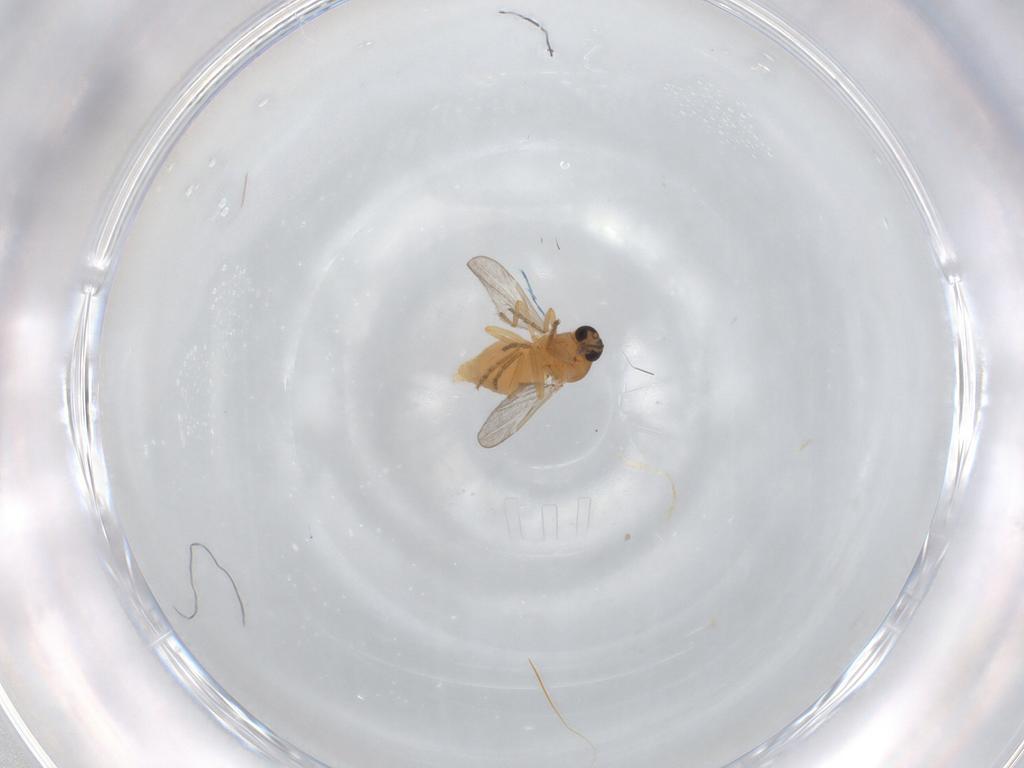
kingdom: Animalia
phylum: Arthropoda
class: Insecta
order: Diptera
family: Ceratopogonidae
